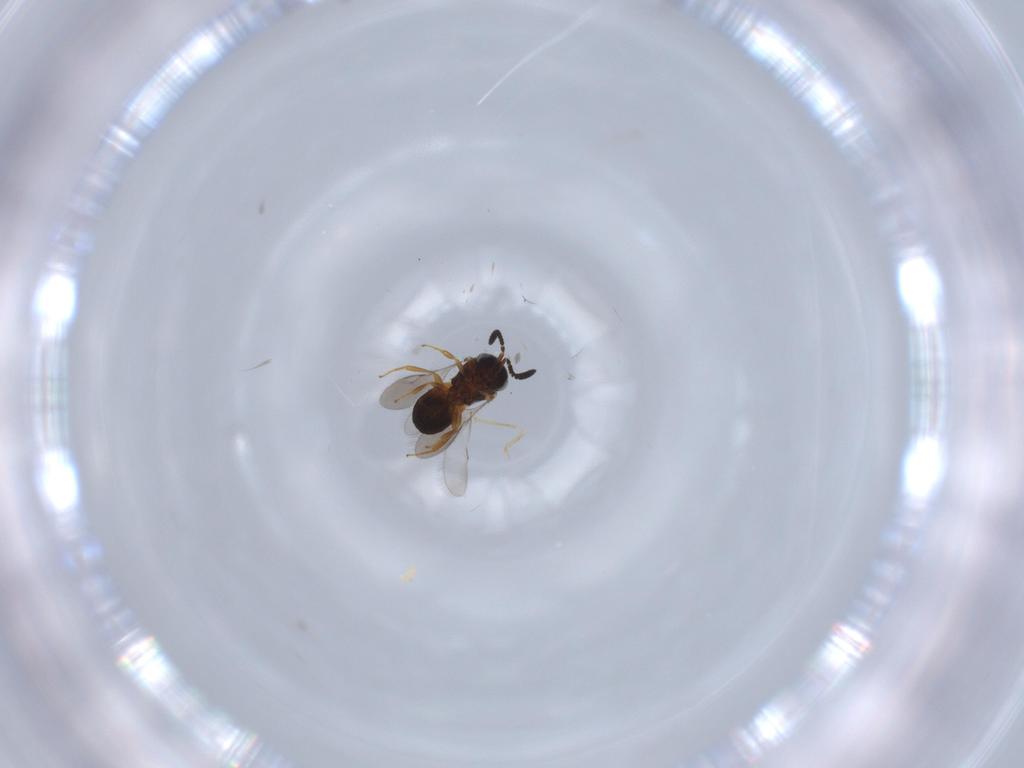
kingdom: Animalia
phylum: Arthropoda
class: Insecta
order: Hymenoptera
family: Scelionidae
